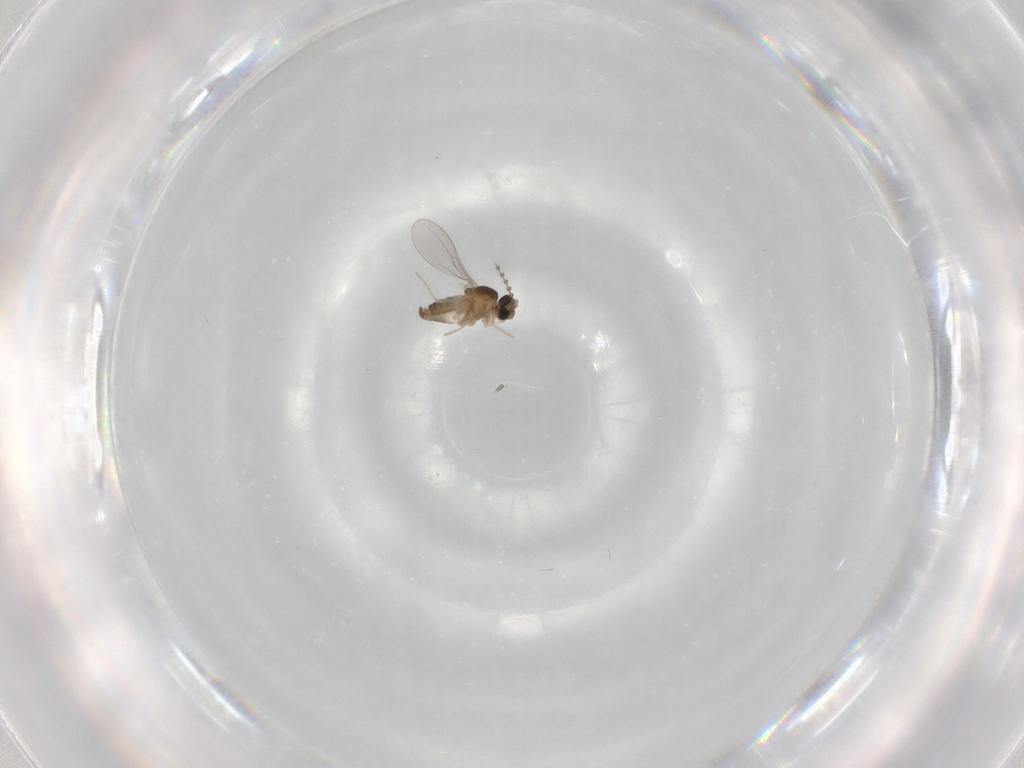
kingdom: Animalia
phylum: Arthropoda
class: Insecta
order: Diptera
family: Cecidomyiidae
